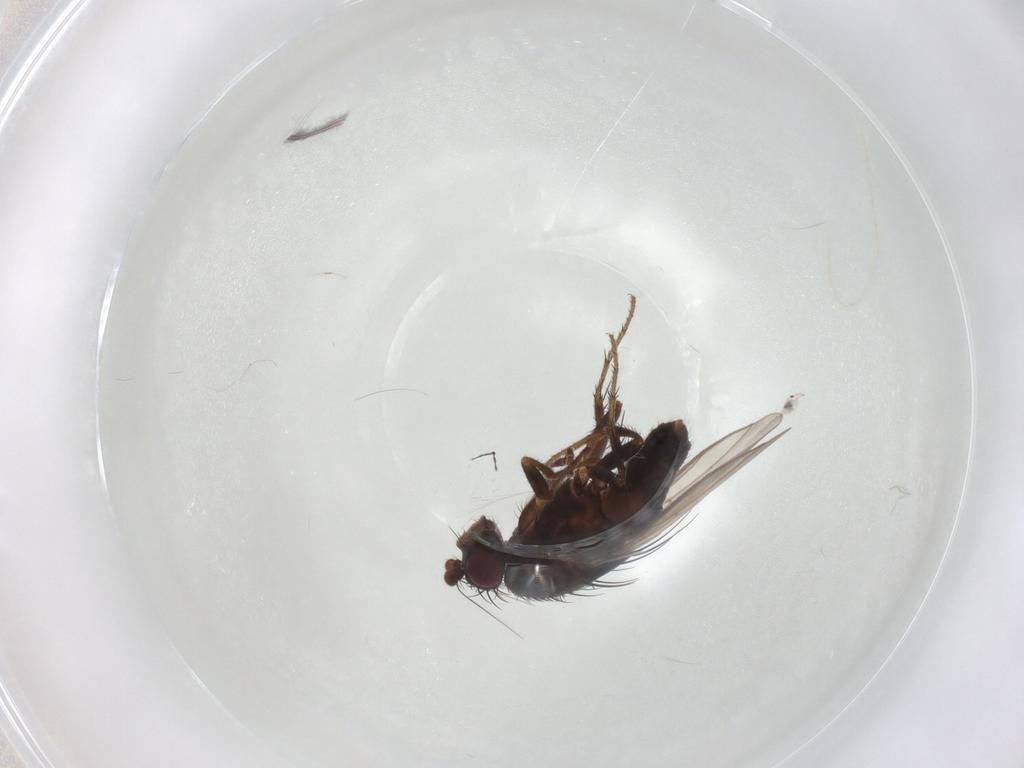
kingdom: Animalia
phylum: Arthropoda
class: Insecta
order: Diptera
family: Sphaeroceridae
